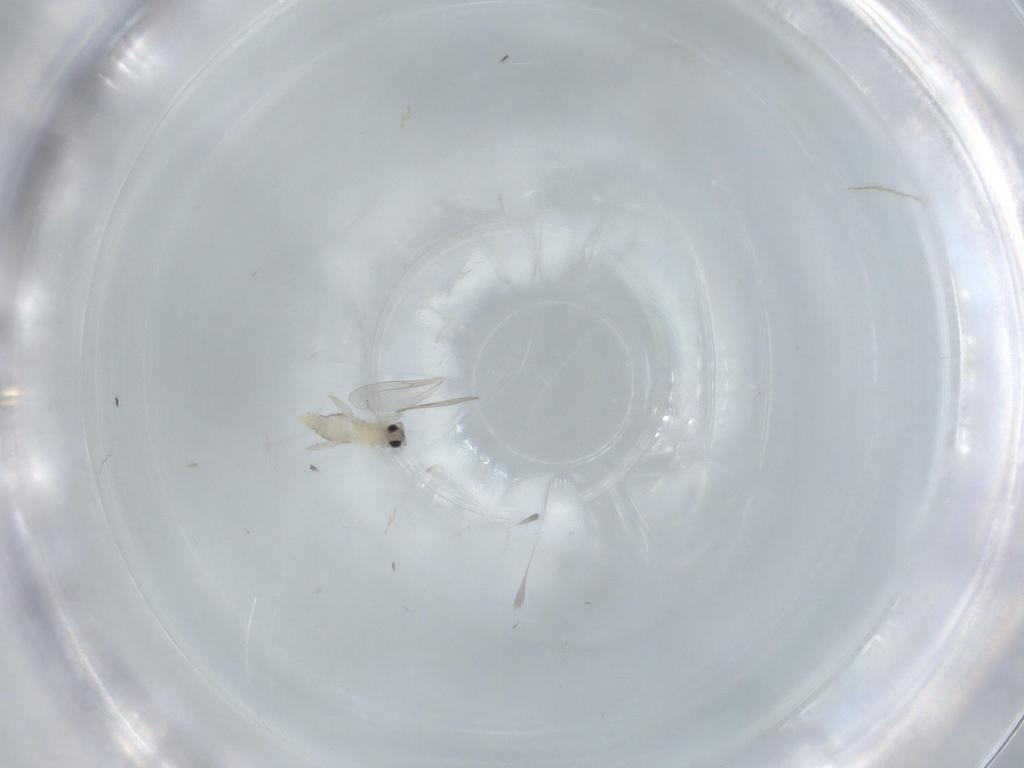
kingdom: Animalia
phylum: Arthropoda
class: Insecta
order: Diptera
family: Cecidomyiidae
